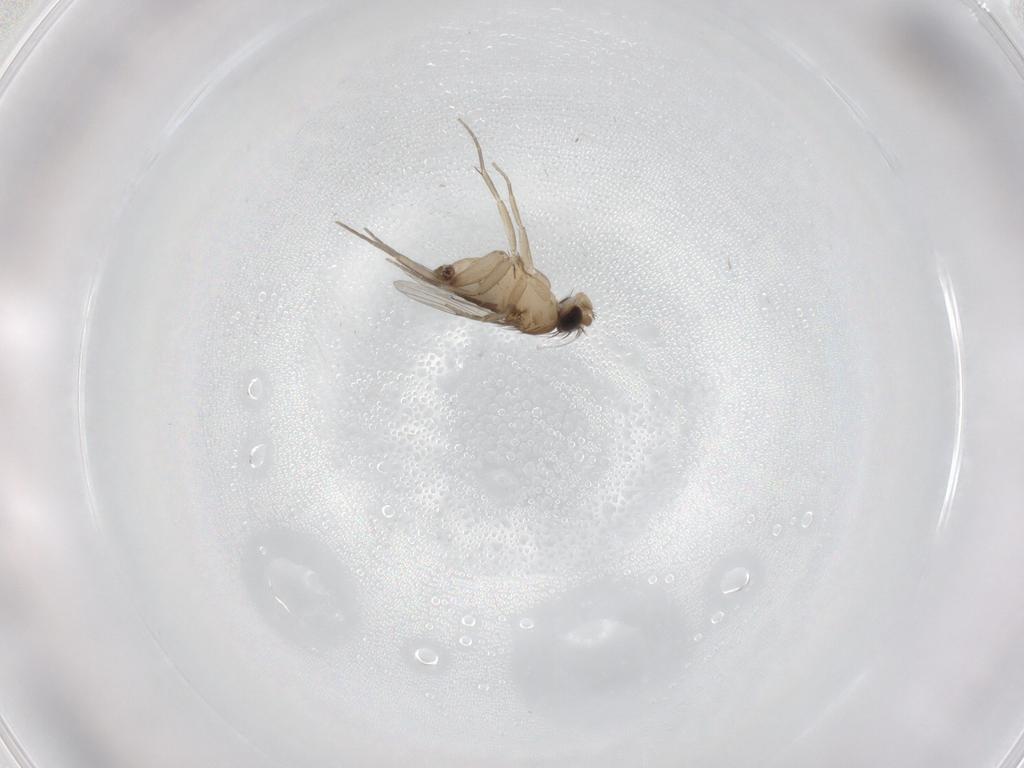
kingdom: Animalia
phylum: Arthropoda
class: Insecta
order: Diptera
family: Phoridae
